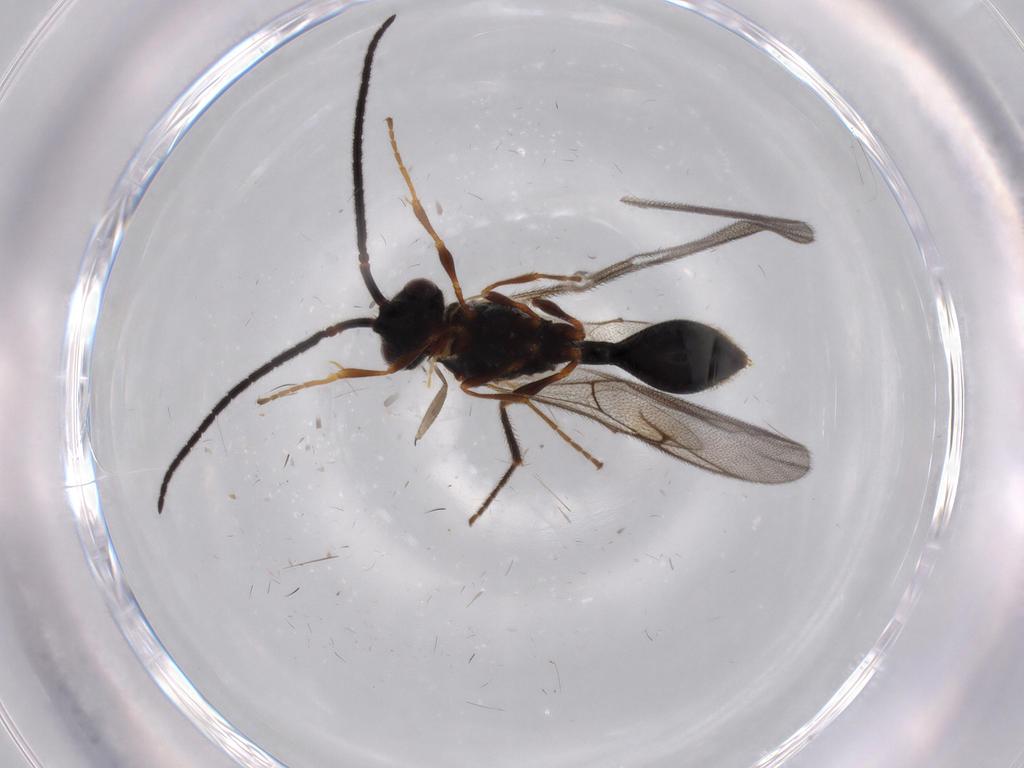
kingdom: Animalia
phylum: Arthropoda
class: Insecta
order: Hymenoptera
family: Eulophidae
